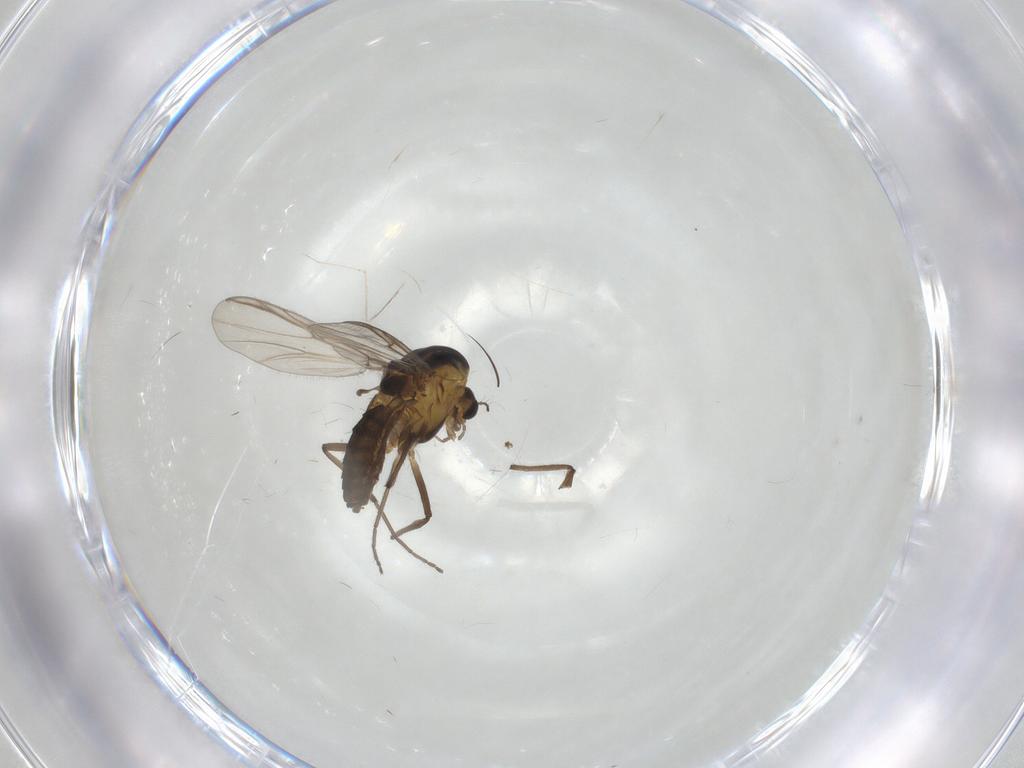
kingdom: Animalia
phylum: Arthropoda
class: Insecta
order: Diptera
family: Chironomidae
